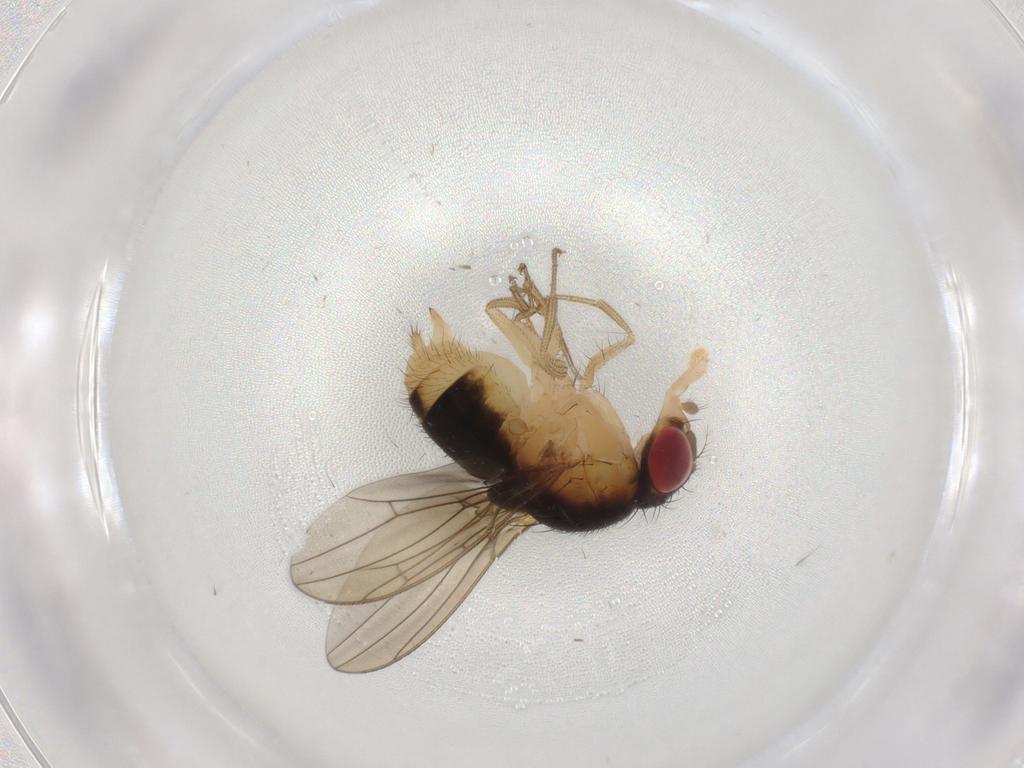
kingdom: Animalia
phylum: Arthropoda
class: Insecta
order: Diptera
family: Drosophilidae
